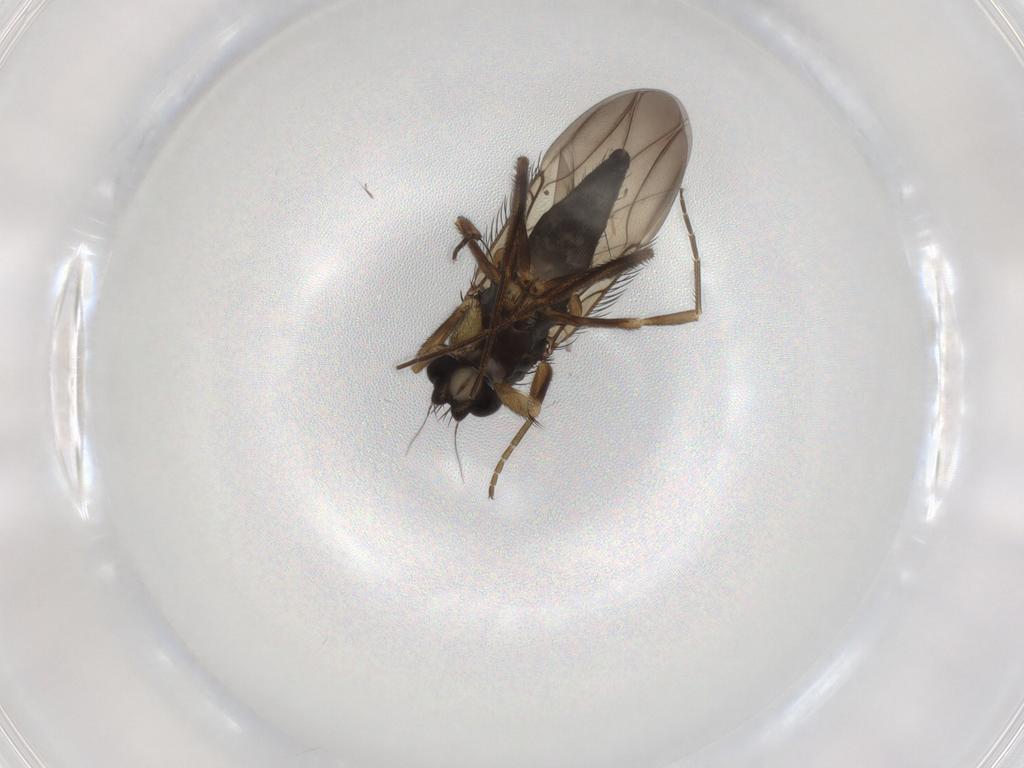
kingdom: Animalia
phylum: Arthropoda
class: Insecta
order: Diptera
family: Phoridae
